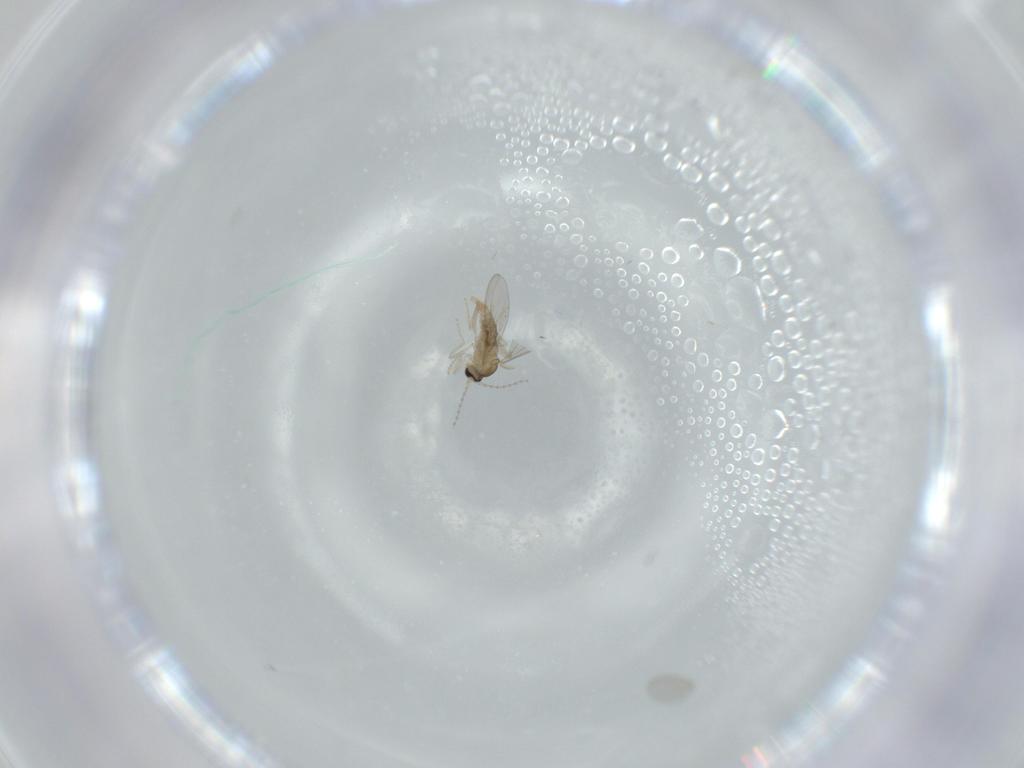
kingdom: Animalia
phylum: Arthropoda
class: Insecta
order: Diptera
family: Cecidomyiidae
